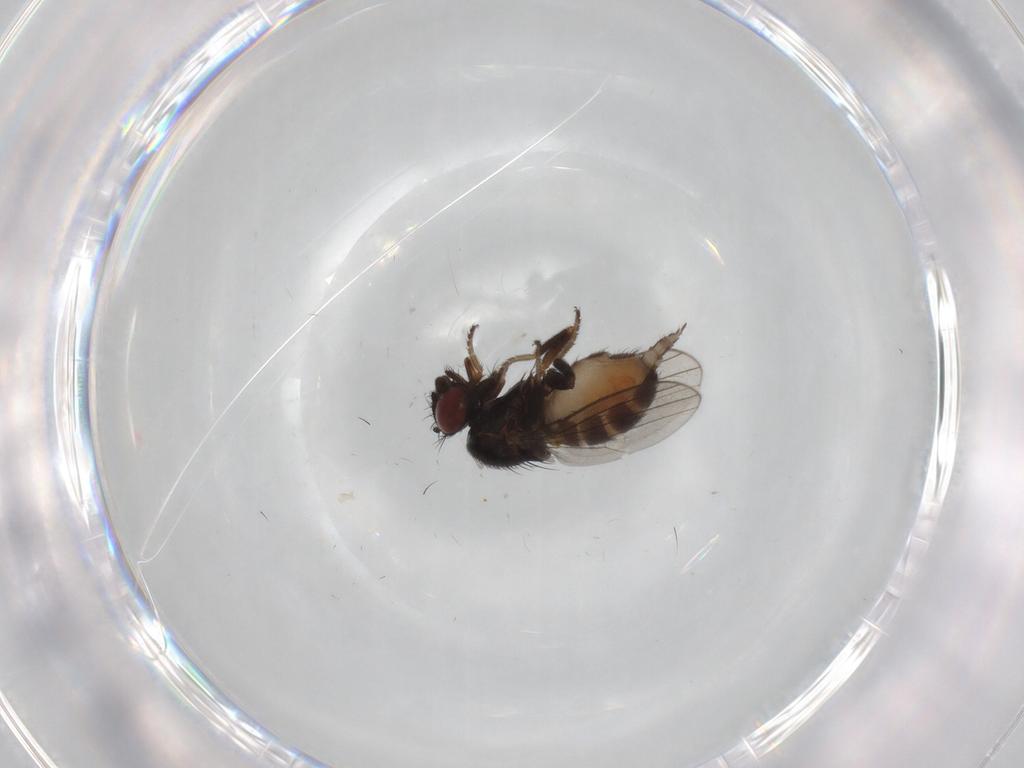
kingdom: Animalia
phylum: Arthropoda
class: Insecta
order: Diptera
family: Milichiidae
